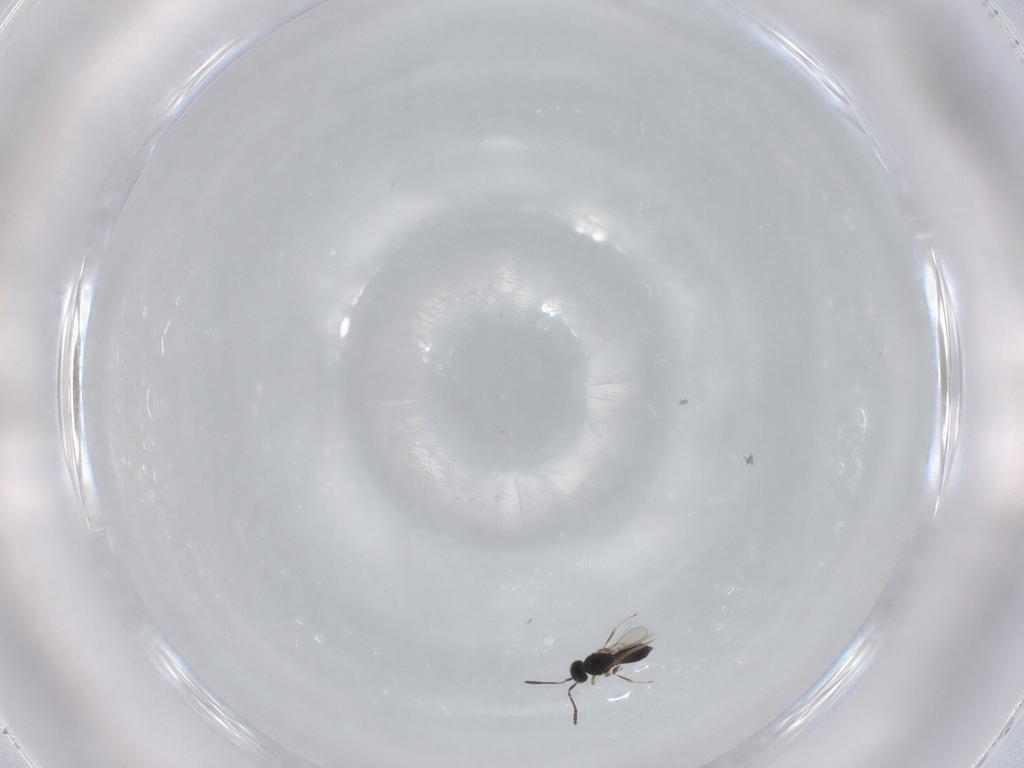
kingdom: Animalia
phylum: Arthropoda
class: Insecta
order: Hymenoptera
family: Scelionidae
